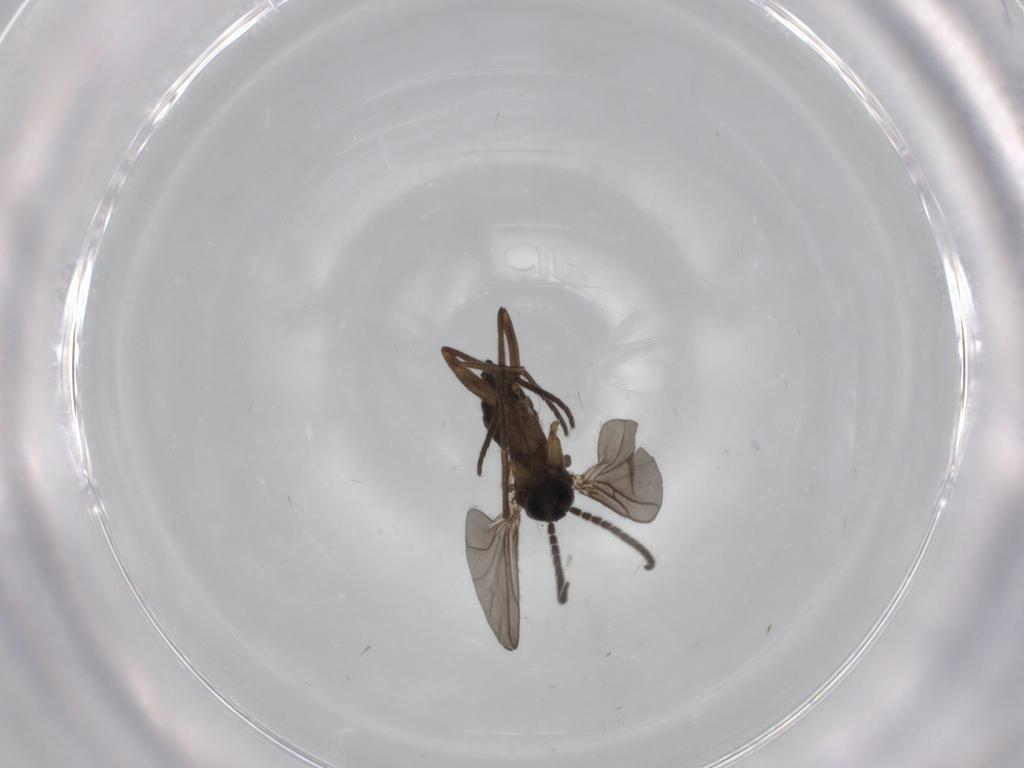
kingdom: Animalia
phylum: Arthropoda
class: Insecta
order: Diptera
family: Sciaridae
